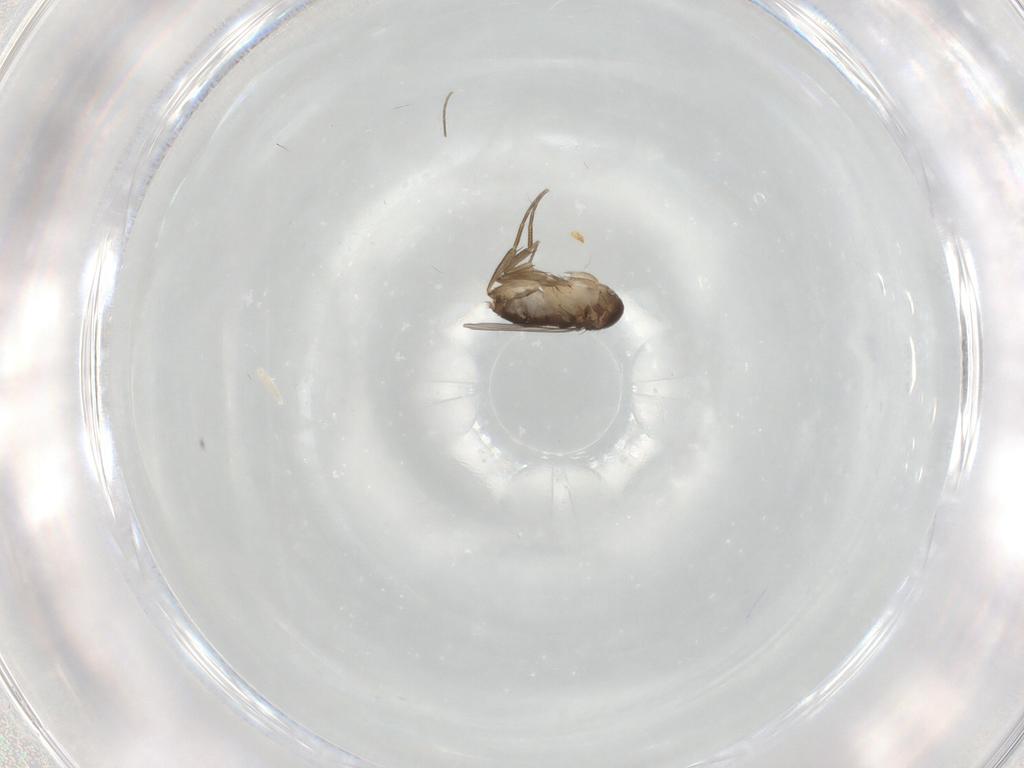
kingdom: Animalia
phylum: Arthropoda
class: Insecta
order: Diptera
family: Phoridae
